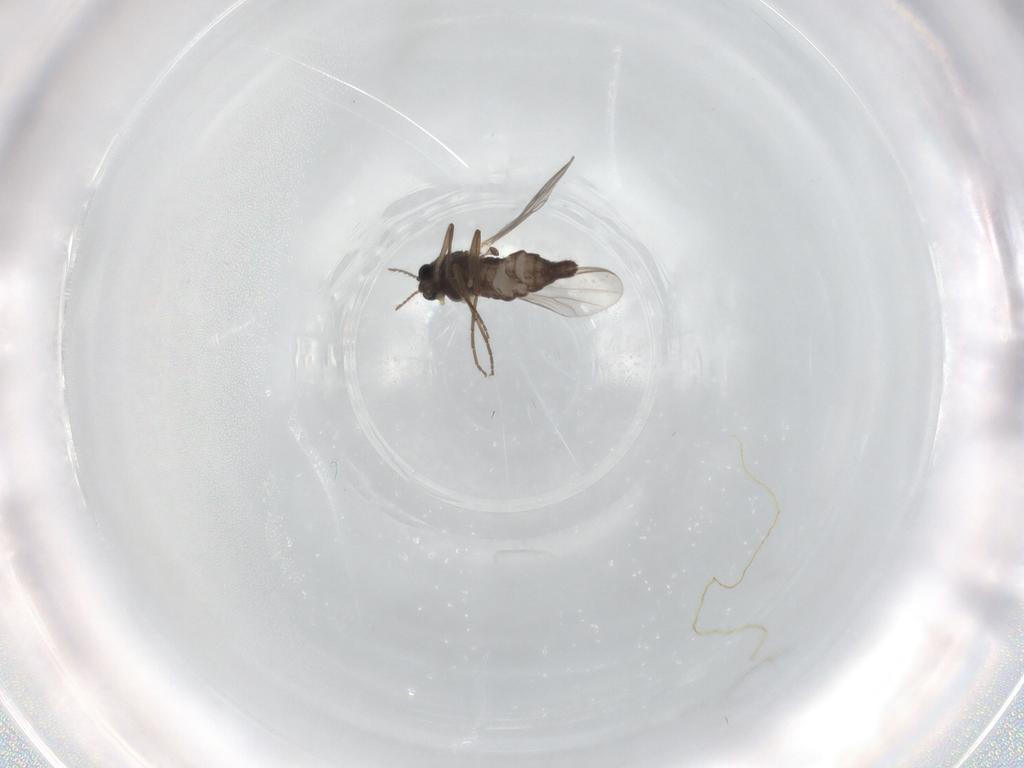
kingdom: Animalia
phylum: Arthropoda
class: Insecta
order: Diptera
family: Chironomidae
